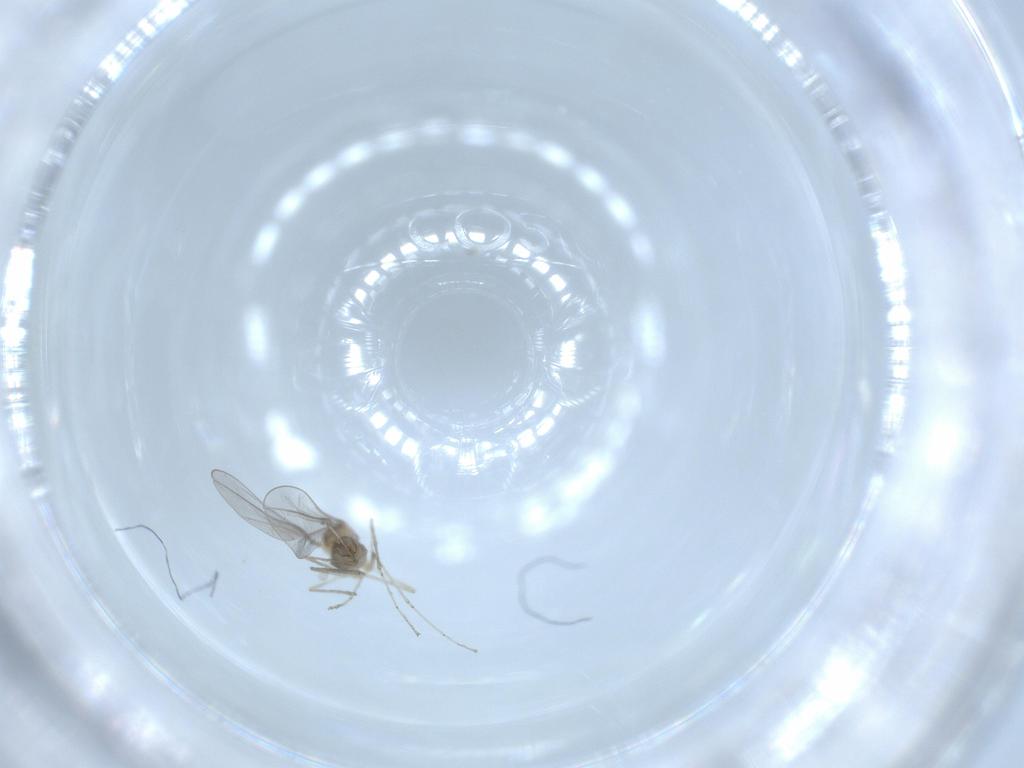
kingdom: Animalia
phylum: Arthropoda
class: Insecta
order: Diptera
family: Cecidomyiidae
